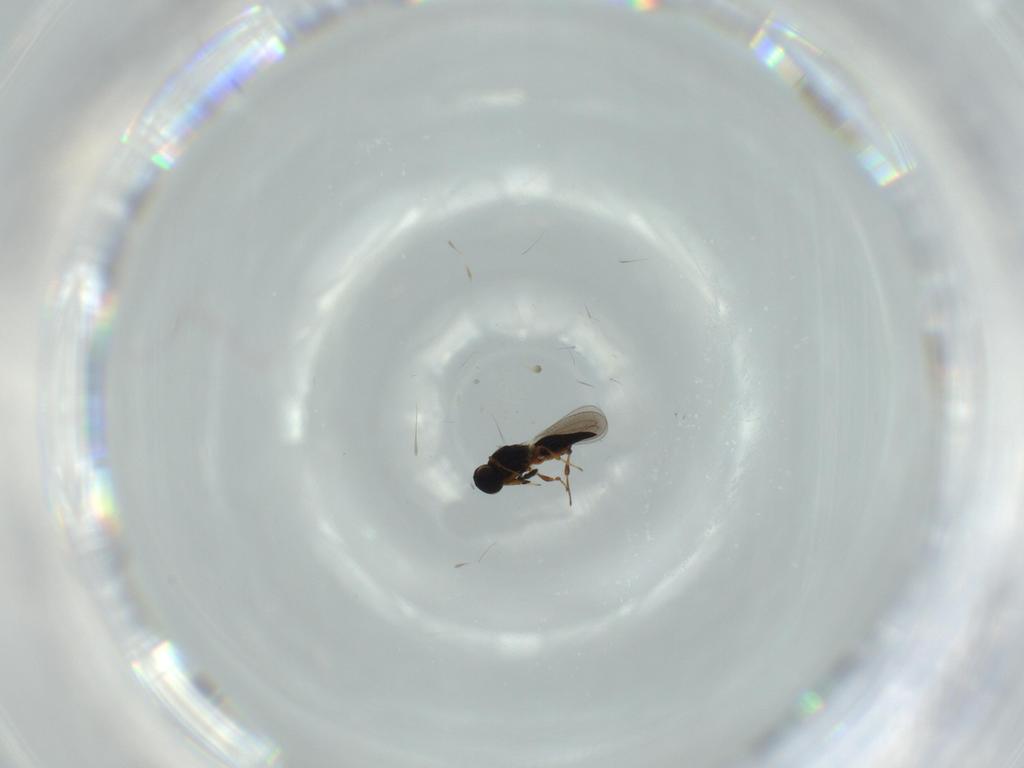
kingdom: Animalia
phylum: Arthropoda
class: Insecta
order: Hymenoptera
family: Platygastridae
